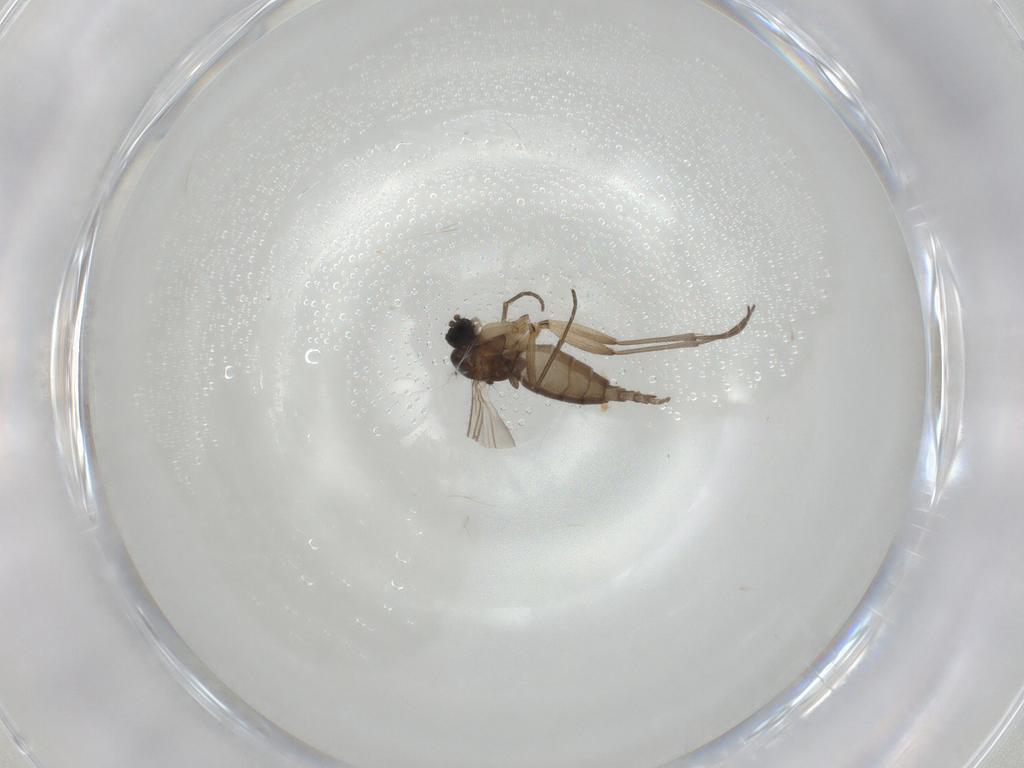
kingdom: Animalia
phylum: Arthropoda
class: Insecta
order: Diptera
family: Sciaridae
